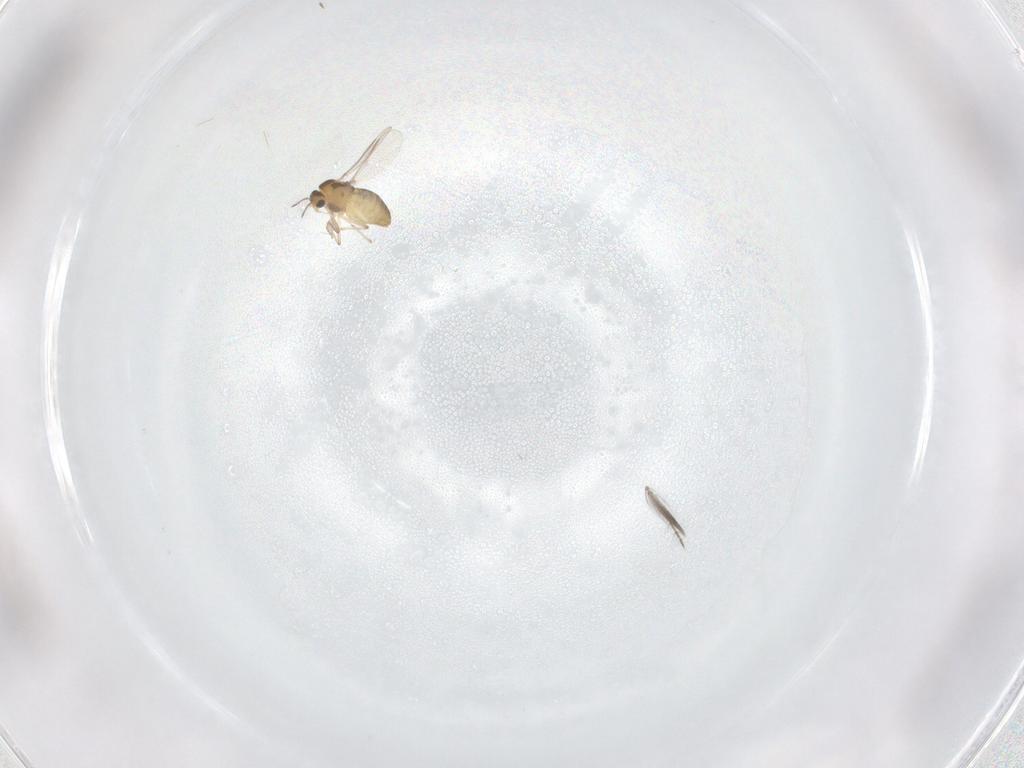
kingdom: Animalia
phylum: Arthropoda
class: Insecta
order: Diptera
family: Chironomidae
